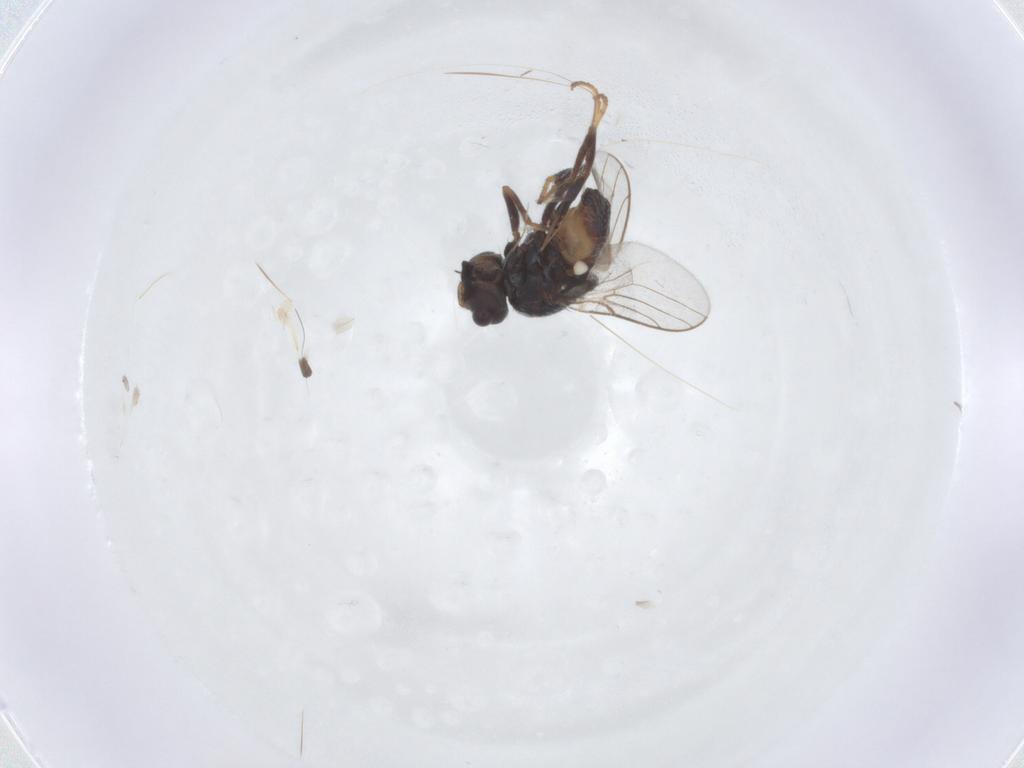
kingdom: Animalia
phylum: Arthropoda
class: Insecta
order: Diptera
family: Chloropidae
